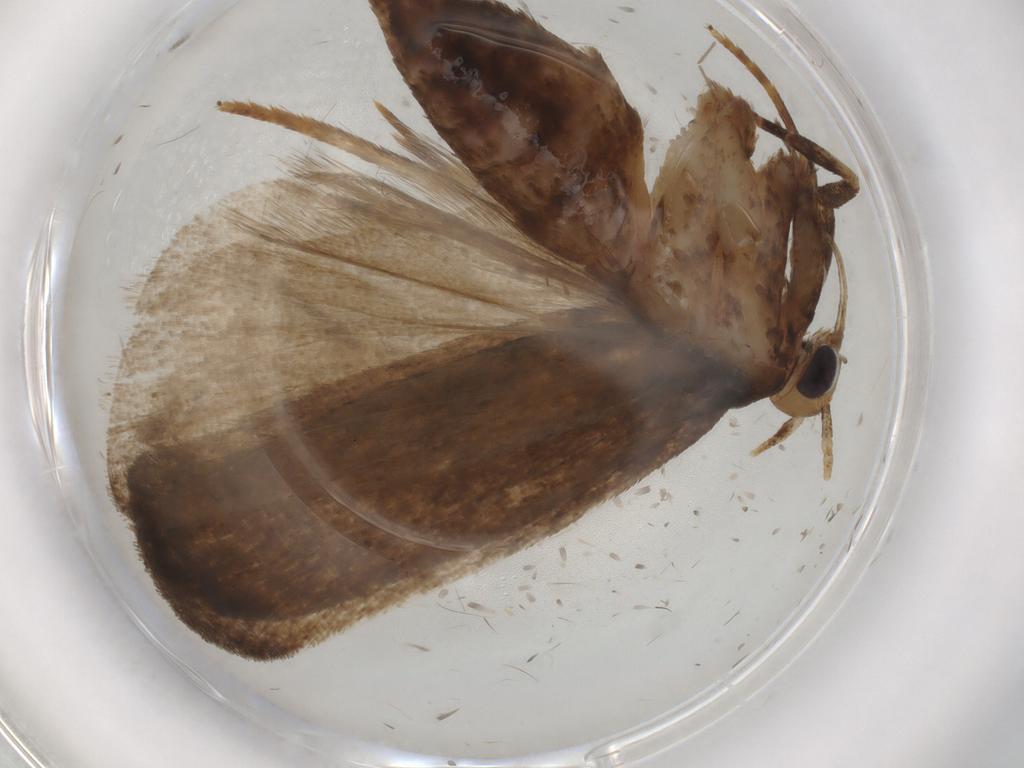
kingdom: Animalia
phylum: Arthropoda
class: Insecta
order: Lepidoptera
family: Autostichidae
